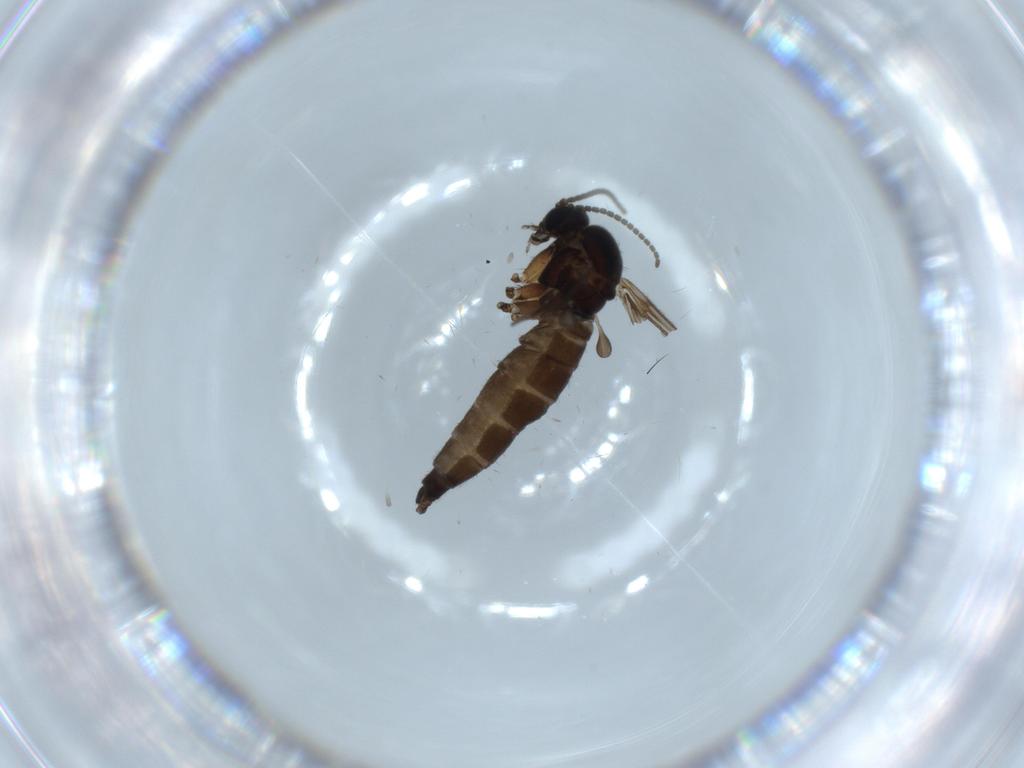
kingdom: Animalia
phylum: Arthropoda
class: Insecta
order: Diptera
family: Sciaridae
